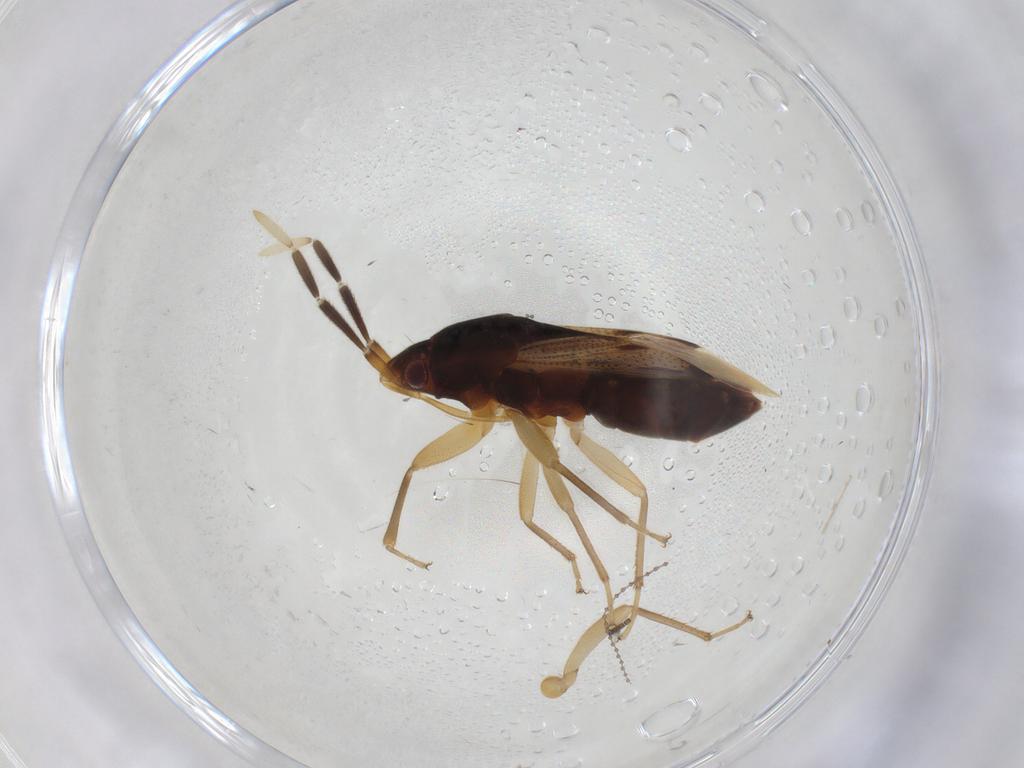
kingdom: Animalia
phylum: Arthropoda
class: Insecta
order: Hemiptera
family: Rhyparochromidae
